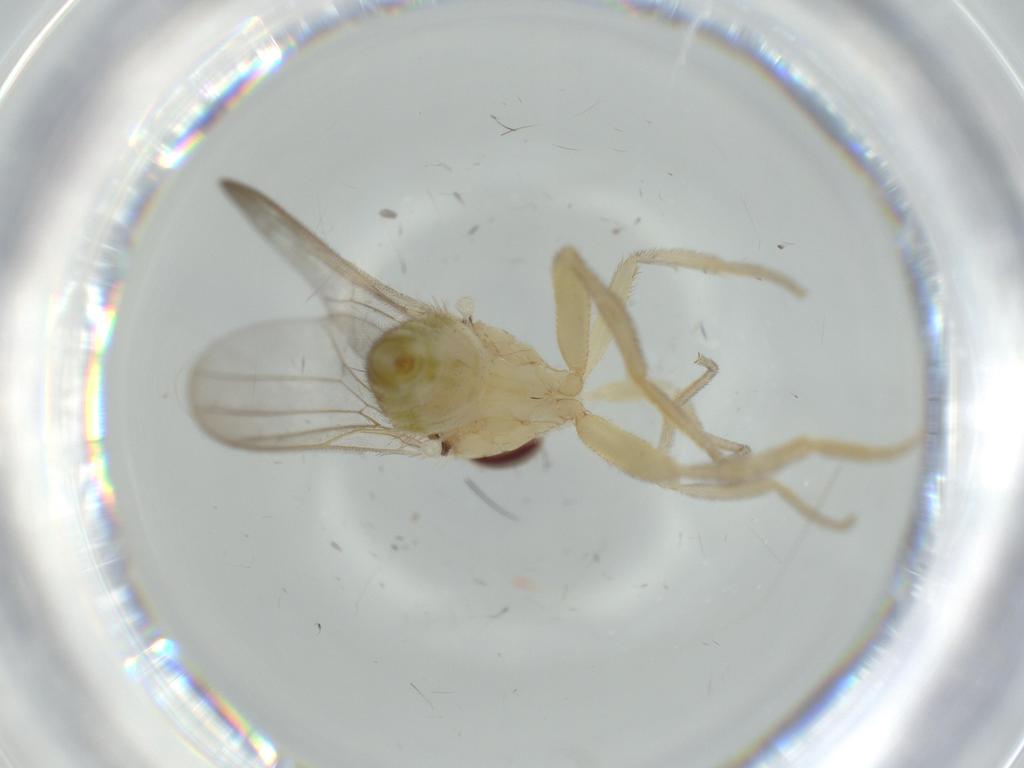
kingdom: Animalia
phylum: Arthropoda
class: Insecta
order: Diptera
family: Chloropidae
